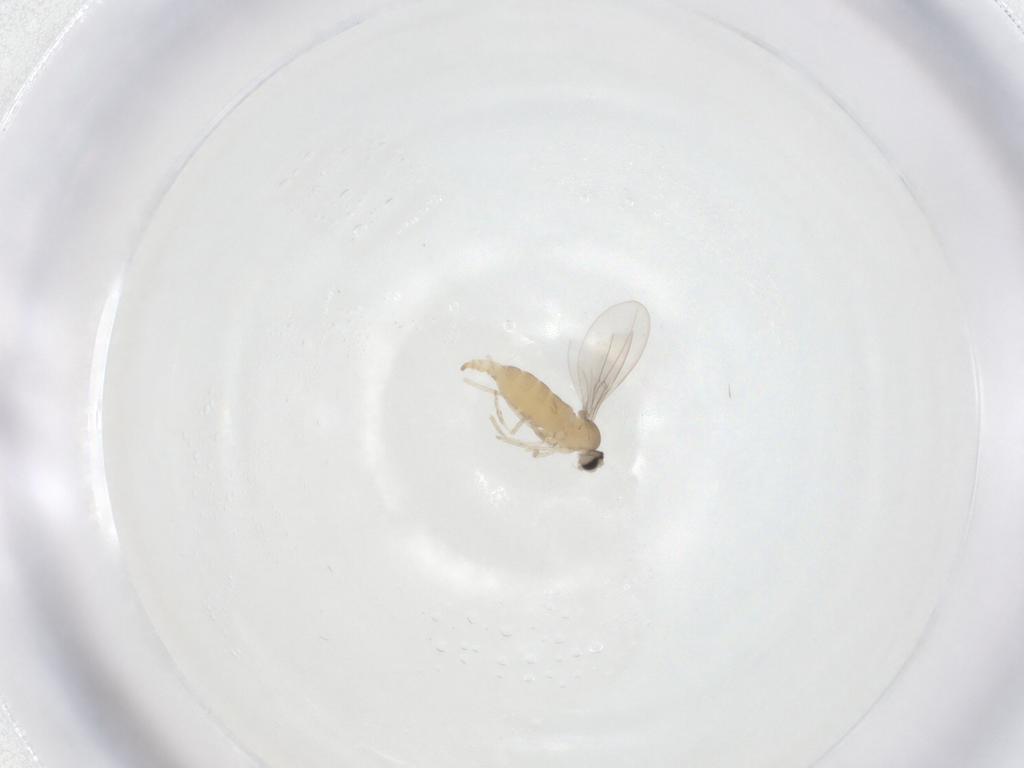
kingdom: Animalia
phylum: Arthropoda
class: Insecta
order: Diptera
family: Cecidomyiidae
